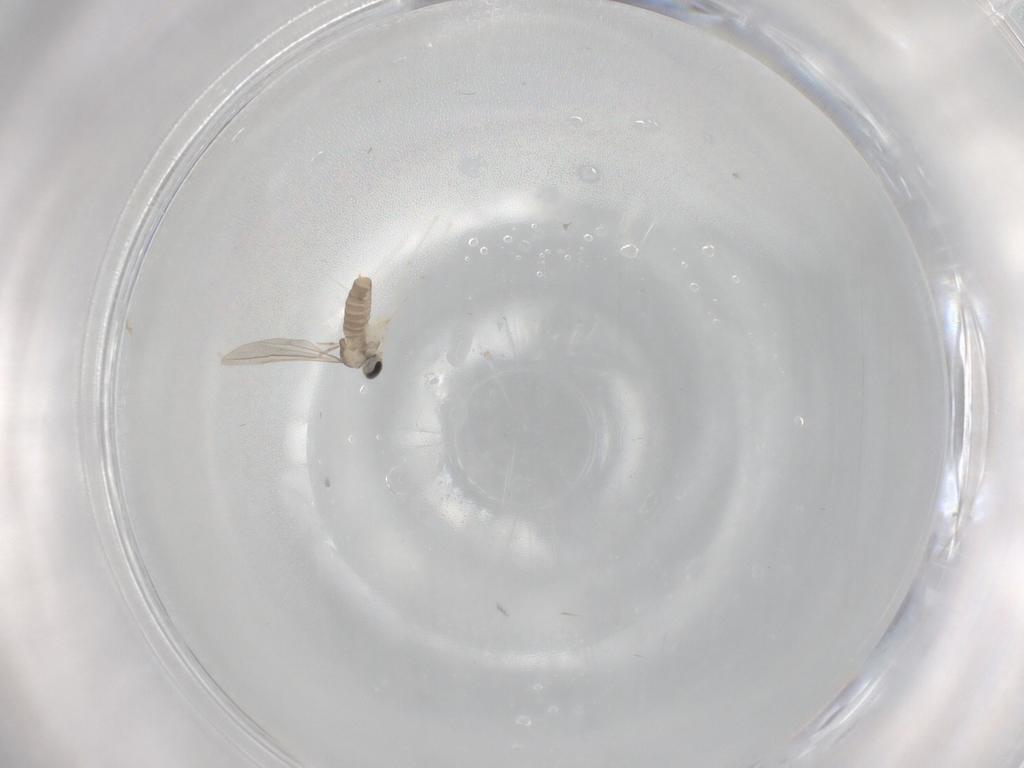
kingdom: Animalia
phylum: Arthropoda
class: Insecta
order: Diptera
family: Cecidomyiidae
